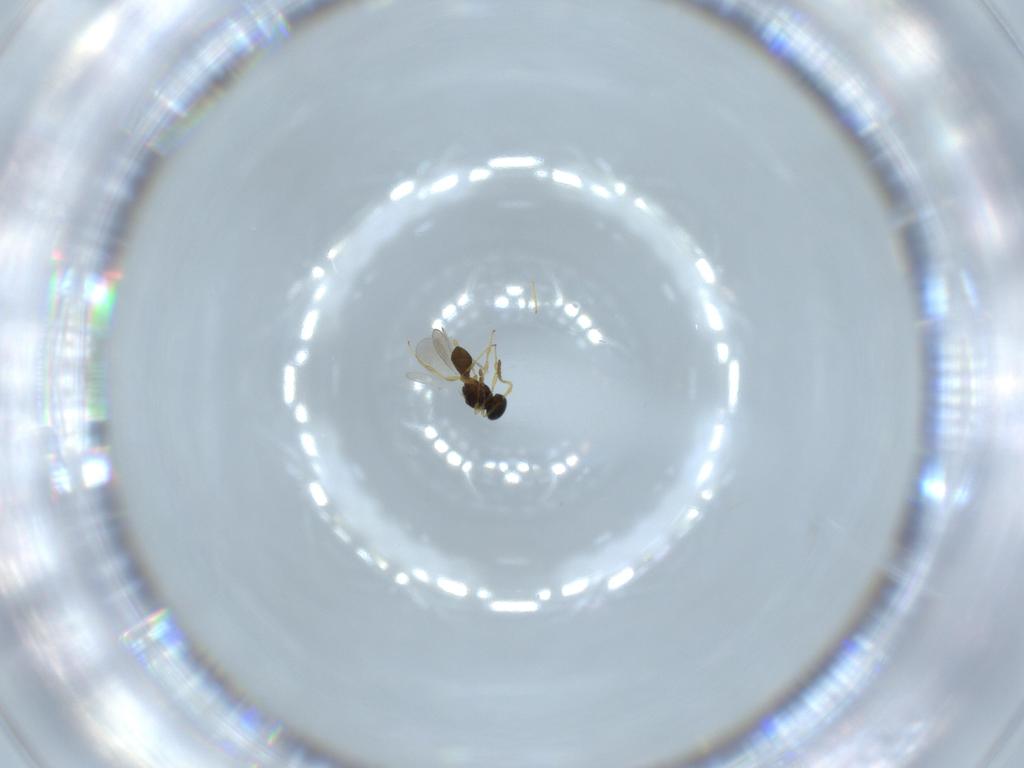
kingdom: Animalia
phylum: Arthropoda
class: Insecta
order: Hymenoptera
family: Platygastridae
